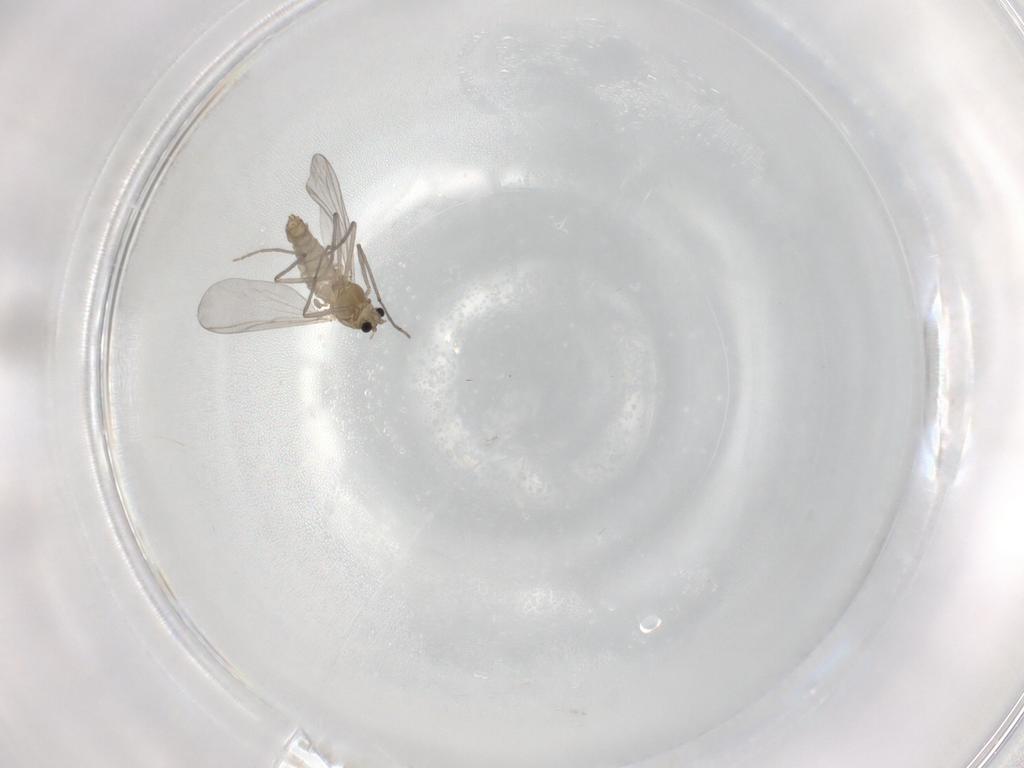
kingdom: Animalia
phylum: Arthropoda
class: Insecta
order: Diptera
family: Chironomidae
